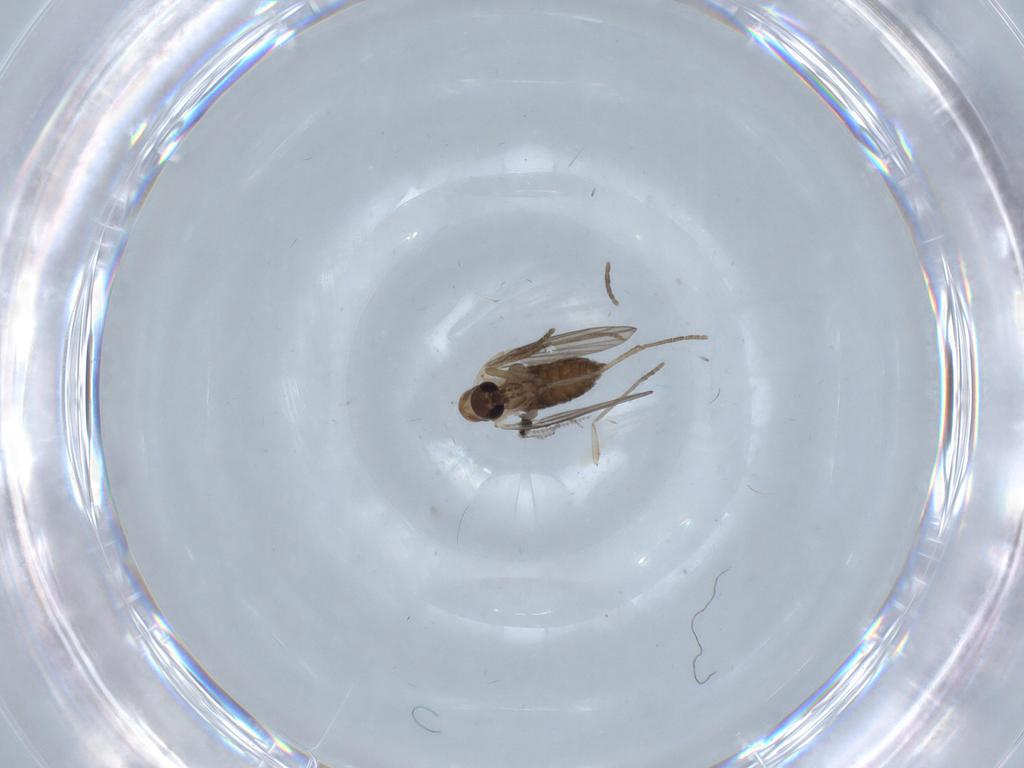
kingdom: Animalia
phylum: Arthropoda
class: Insecta
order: Diptera
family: Psychodidae
